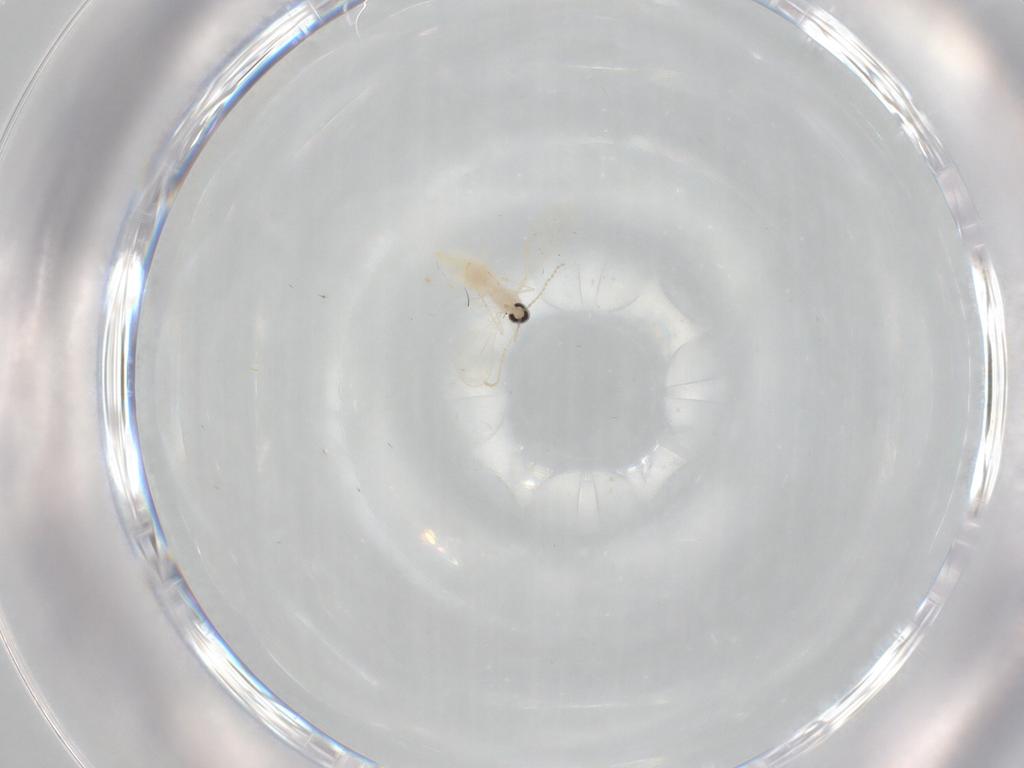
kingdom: Animalia
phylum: Arthropoda
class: Insecta
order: Diptera
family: Cecidomyiidae
